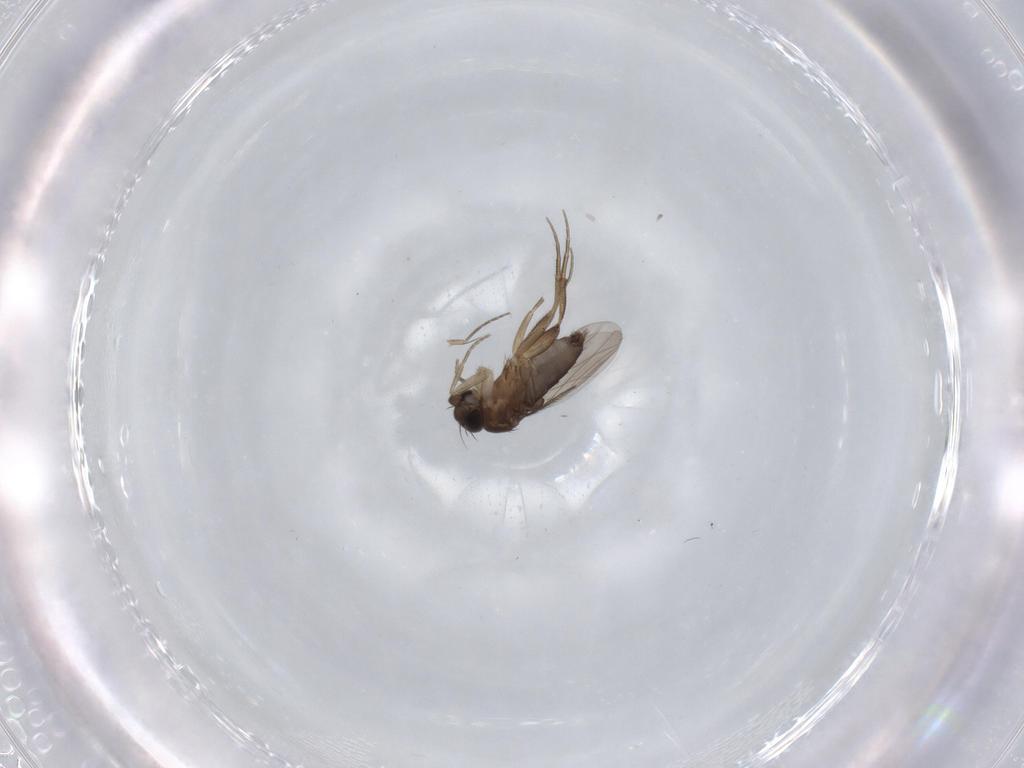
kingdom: Animalia
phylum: Arthropoda
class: Insecta
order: Diptera
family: Phoridae
